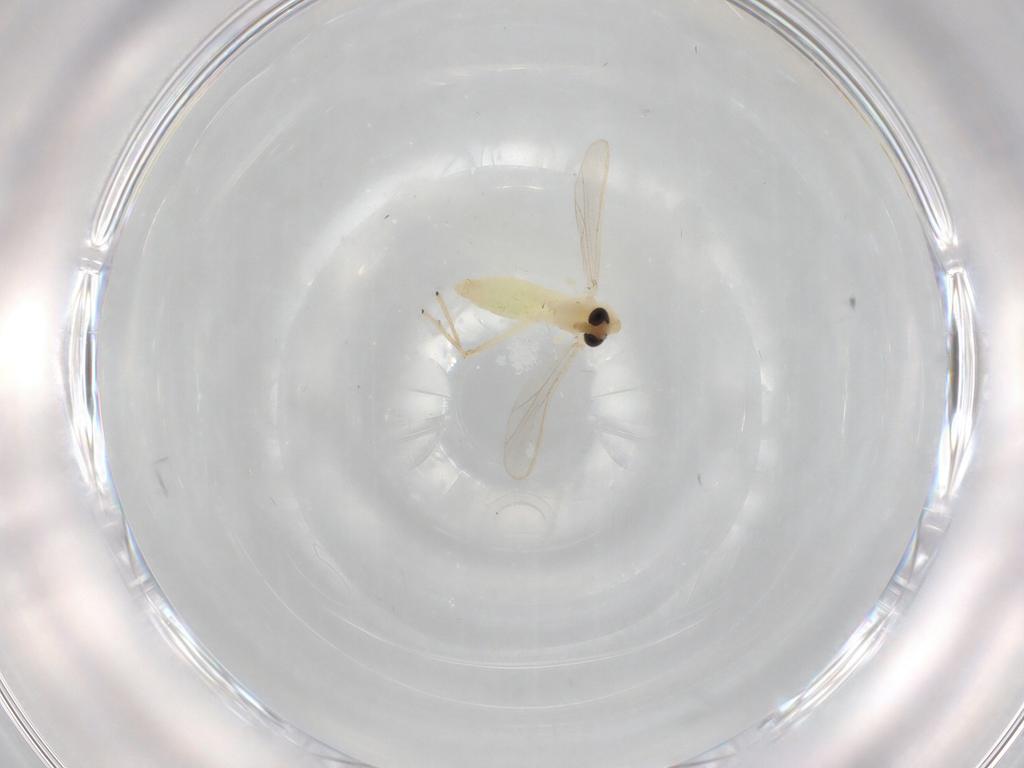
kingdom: Animalia
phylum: Arthropoda
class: Insecta
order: Diptera
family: Chironomidae
